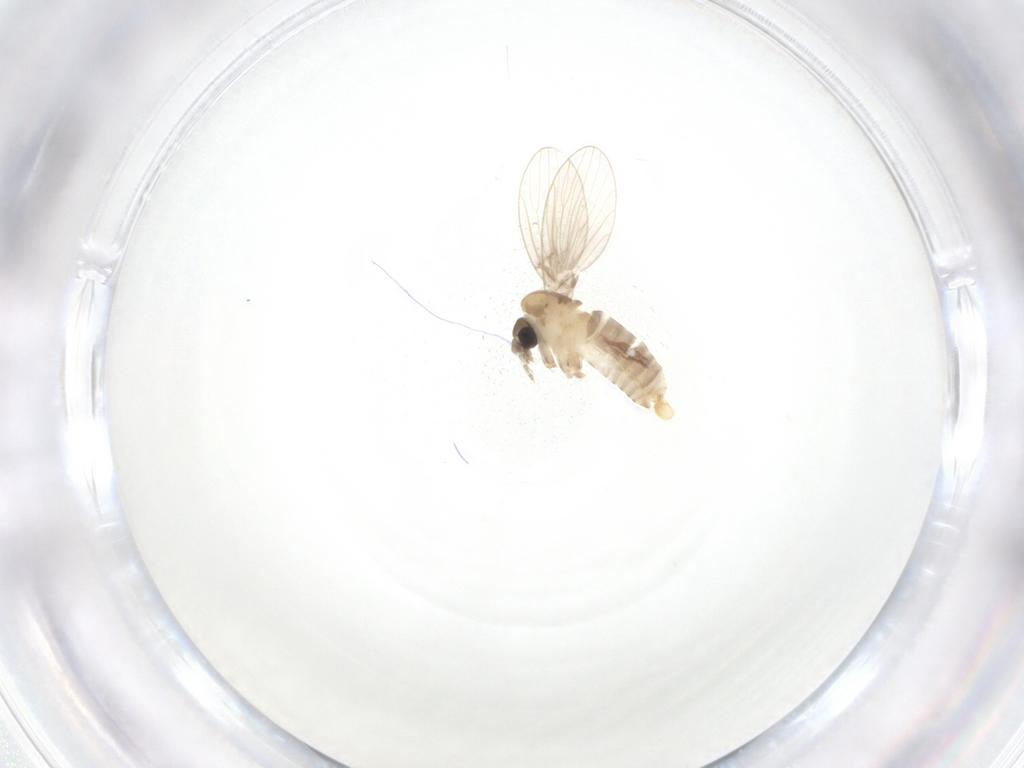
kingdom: Animalia
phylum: Arthropoda
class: Insecta
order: Diptera
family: Psychodidae
